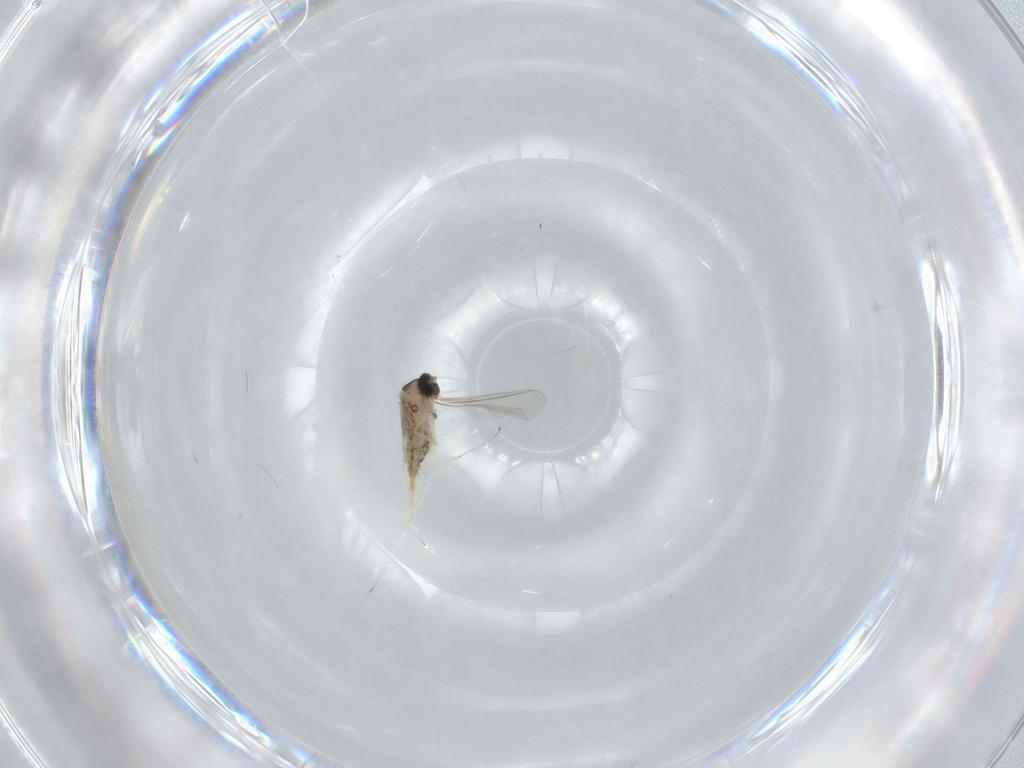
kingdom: Animalia
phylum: Arthropoda
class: Insecta
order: Diptera
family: Cecidomyiidae
